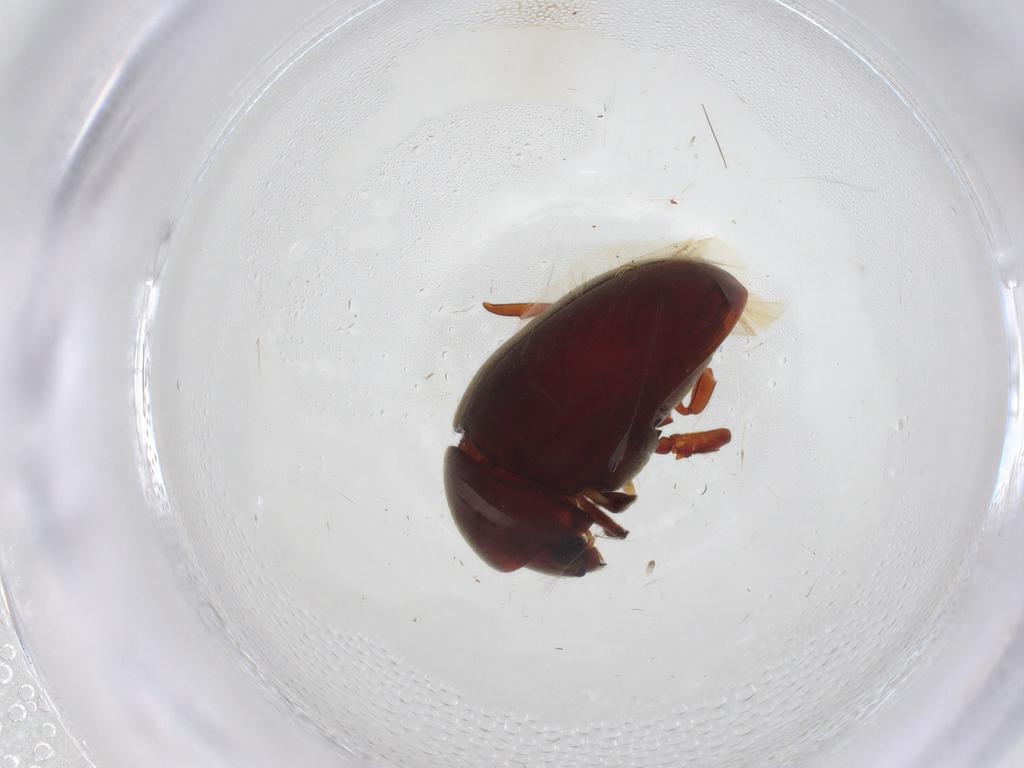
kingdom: Animalia
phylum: Arthropoda
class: Insecta
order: Coleoptera
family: Ptinidae
